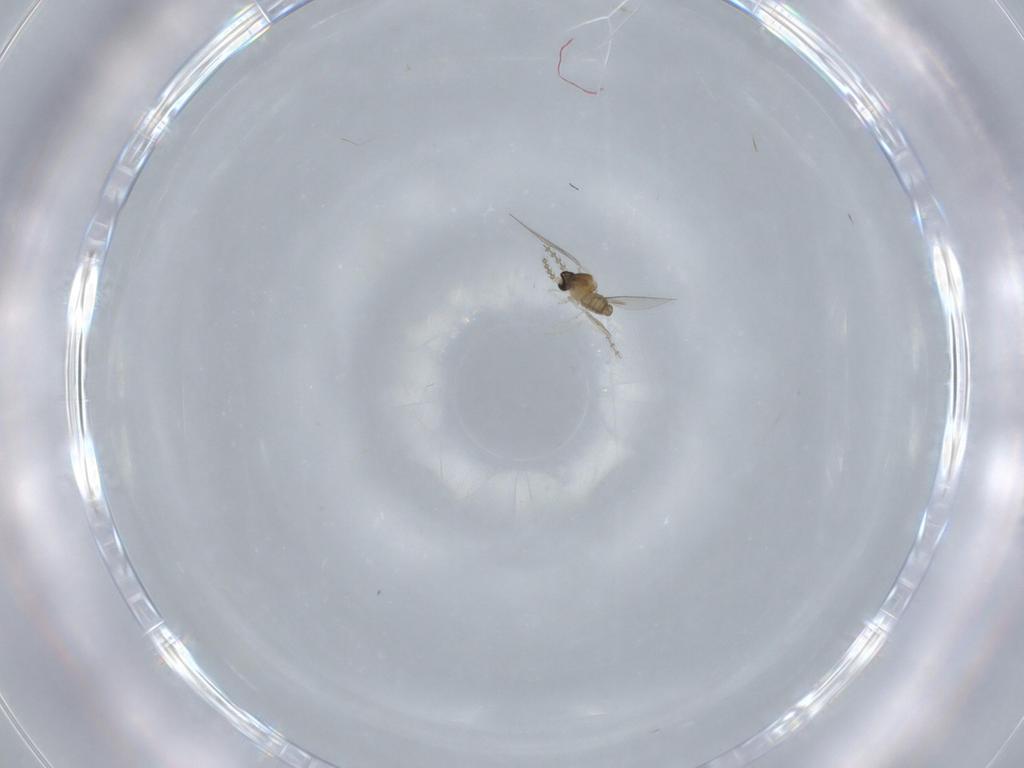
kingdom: Animalia
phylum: Arthropoda
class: Insecta
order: Diptera
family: Cecidomyiidae
